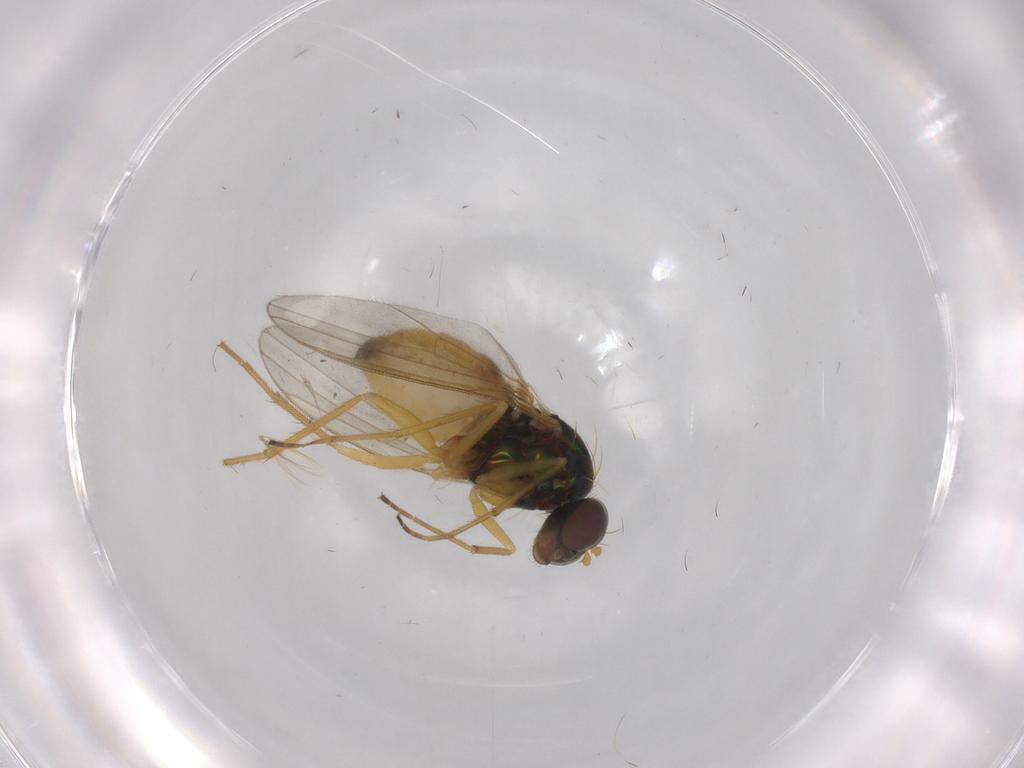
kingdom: Animalia
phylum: Arthropoda
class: Insecta
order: Diptera
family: Dolichopodidae
